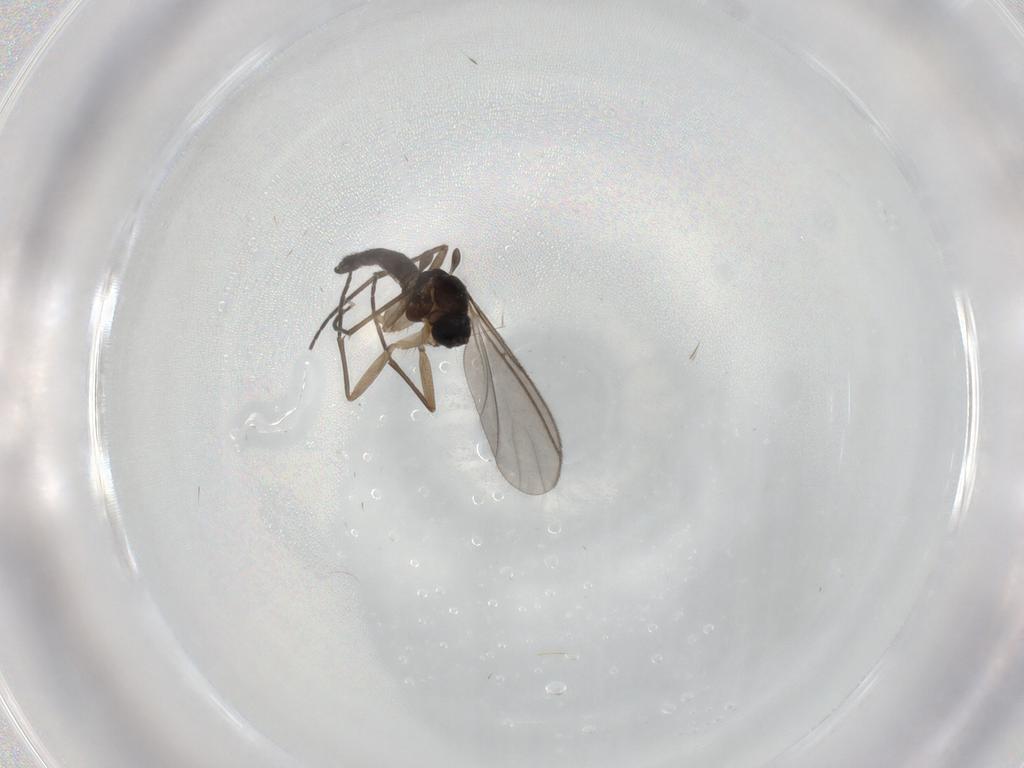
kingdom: Animalia
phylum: Arthropoda
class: Insecta
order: Diptera
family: Sciaridae
